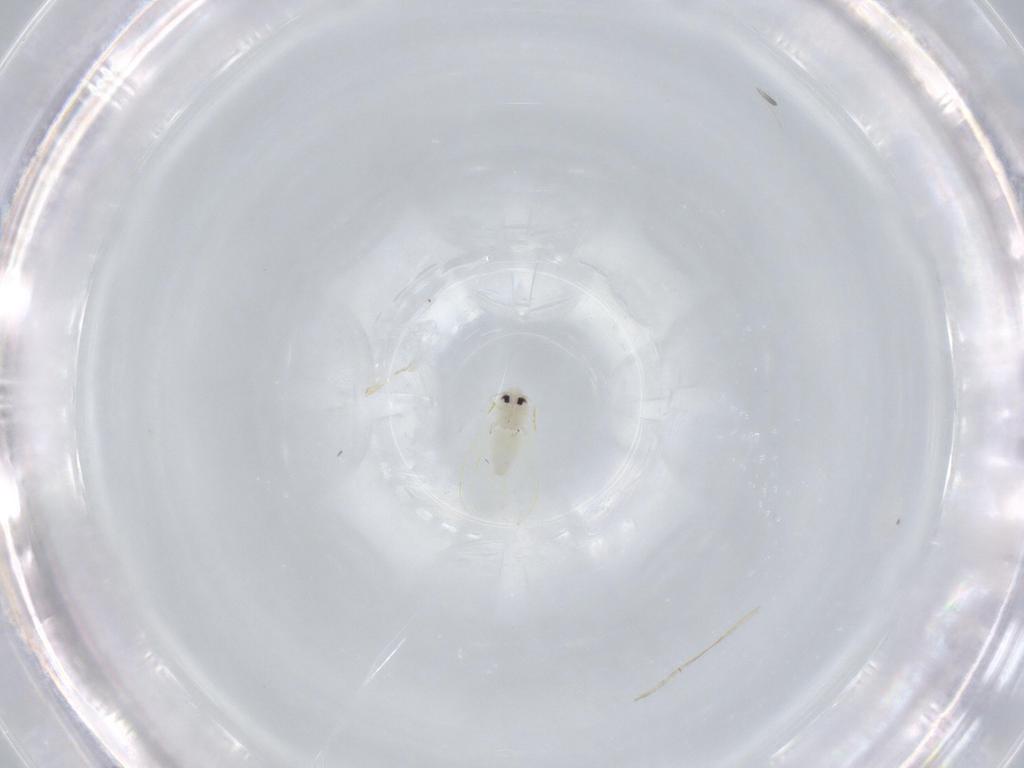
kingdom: Animalia
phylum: Arthropoda
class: Insecta
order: Hemiptera
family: Aleyrodidae
